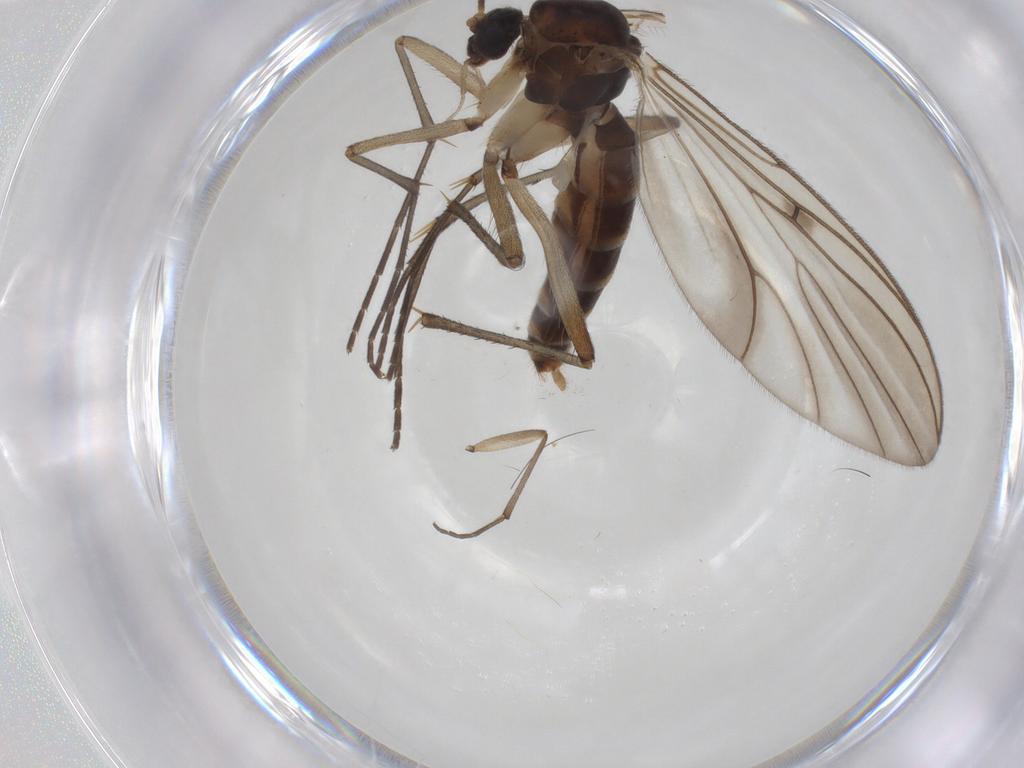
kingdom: Animalia
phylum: Arthropoda
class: Insecta
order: Diptera
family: Mycetophilidae
